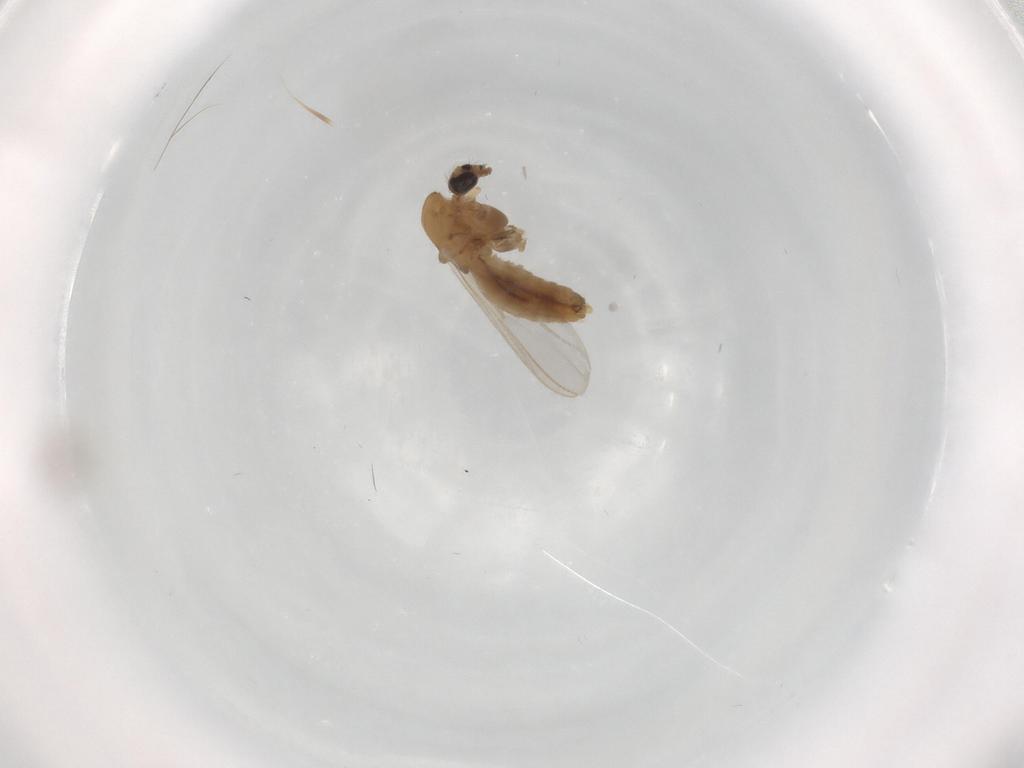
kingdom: Animalia
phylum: Arthropoda
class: Insecta
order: Diptera
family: Chironomidae
